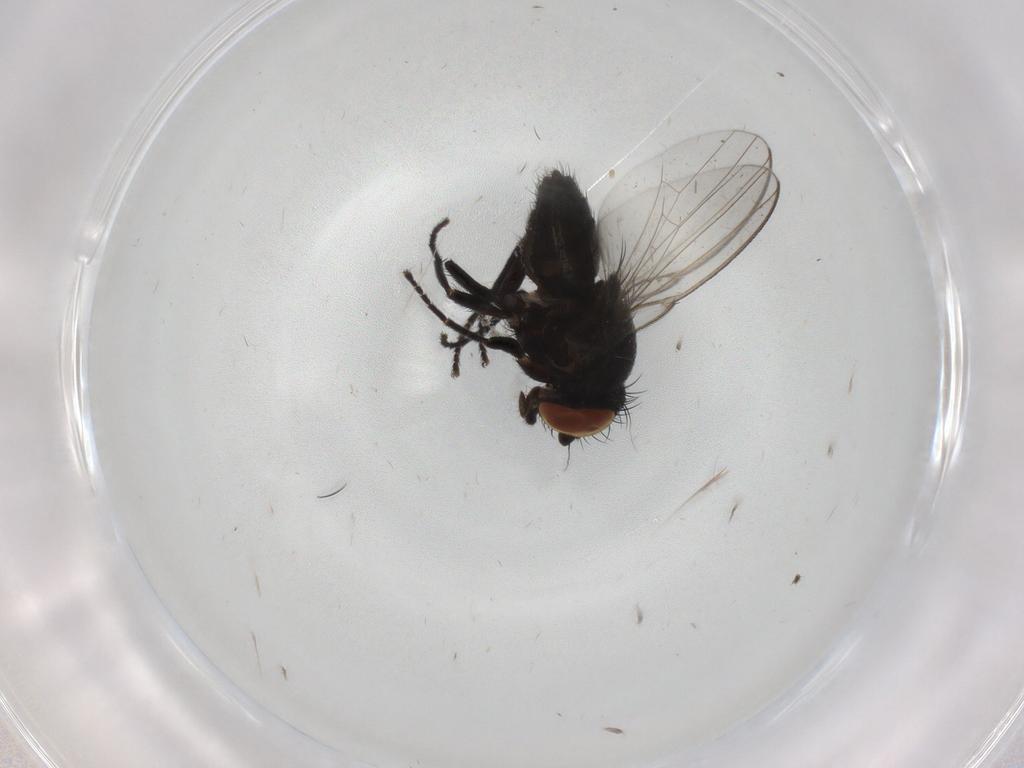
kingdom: Animalia
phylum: Arthropoda
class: Insecta
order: Diptera
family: Milichiidae
